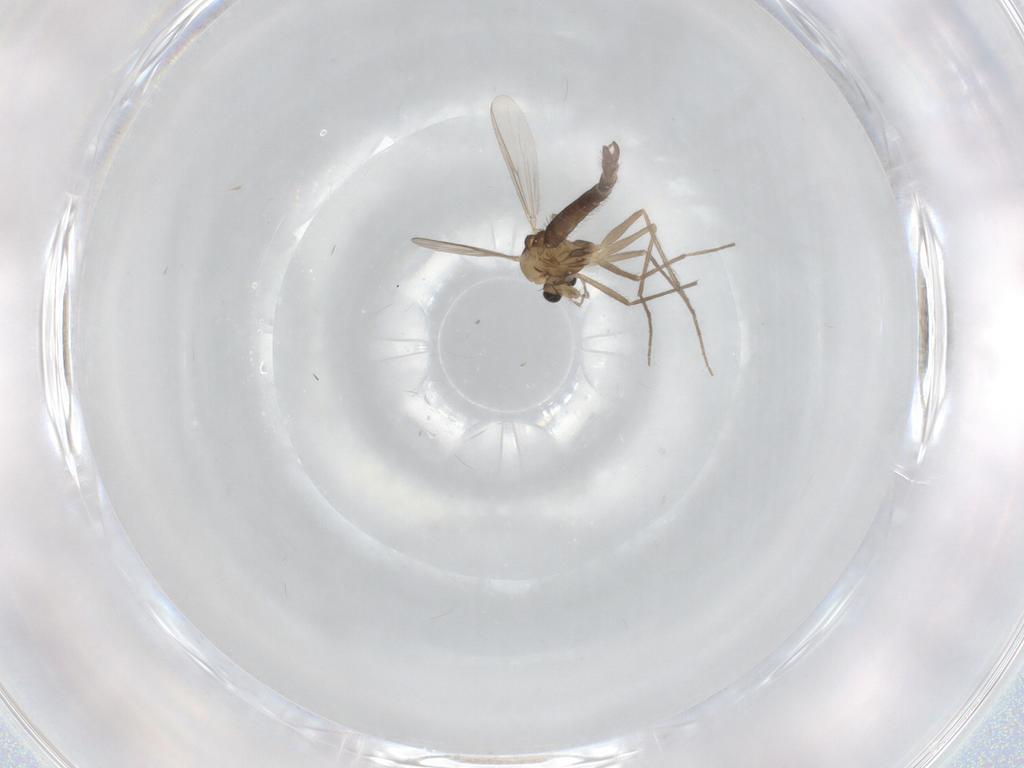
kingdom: Animalia
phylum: Arthropoda
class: Insecta
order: Diptera
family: Chironomidae
